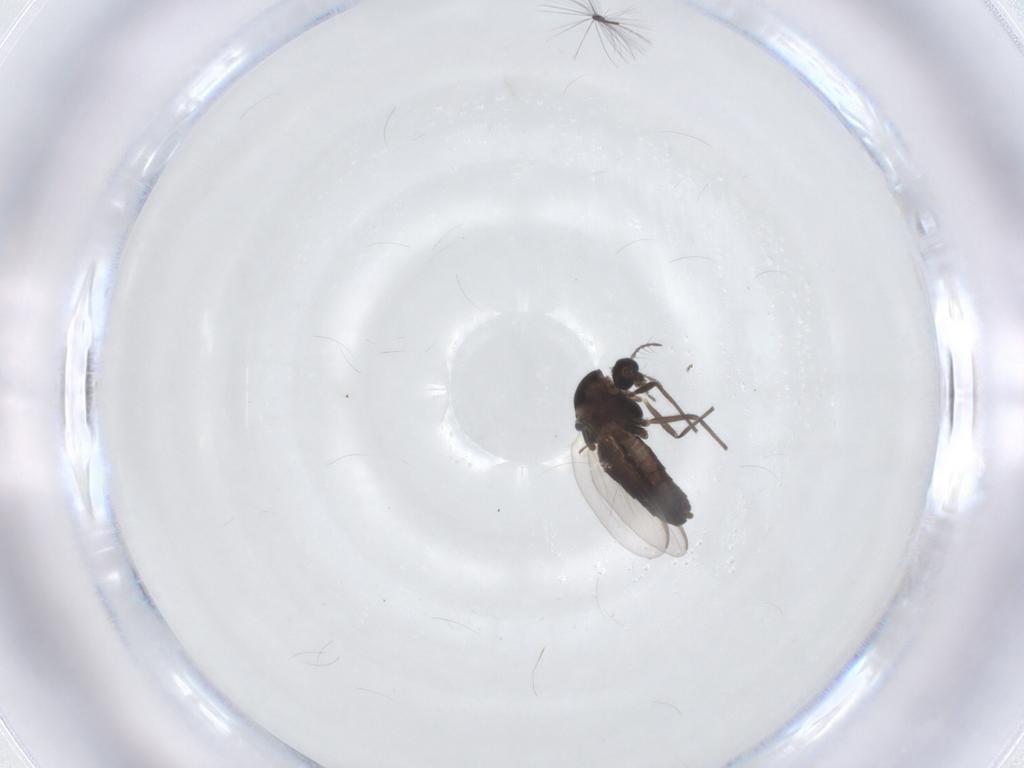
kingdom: Animalia
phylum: Arthropoda
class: Insecta
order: Diptera
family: Chironomidae
